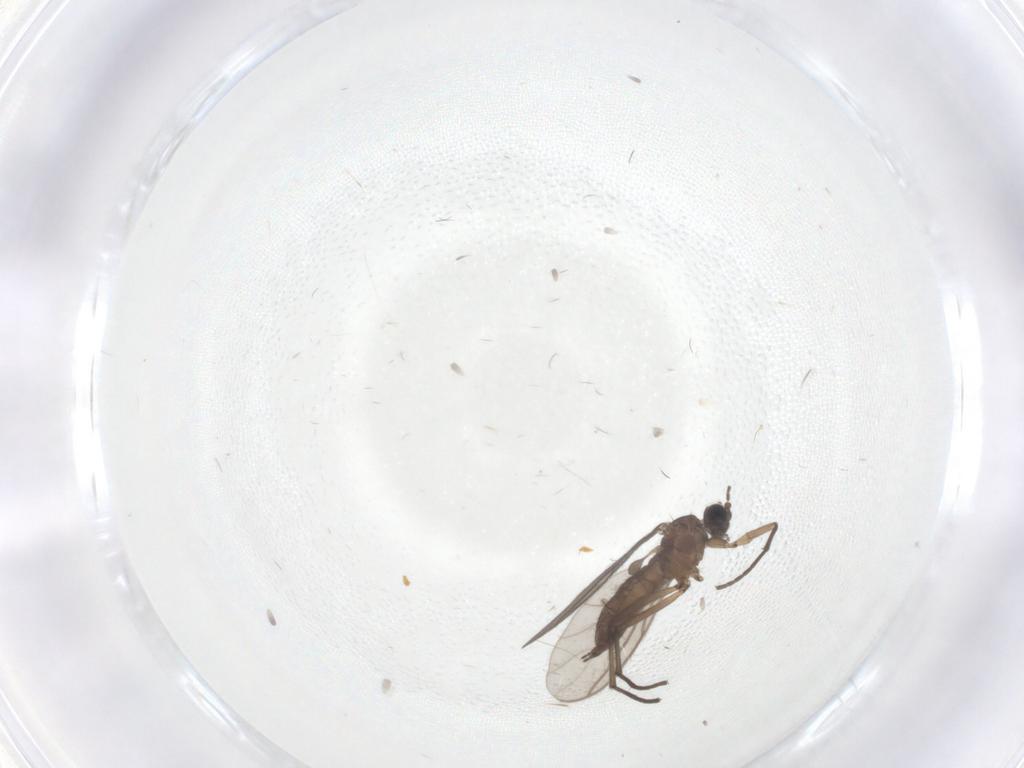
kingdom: Animalia
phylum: Arthropoda
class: Insecta
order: Diptera
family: Sciaridae
